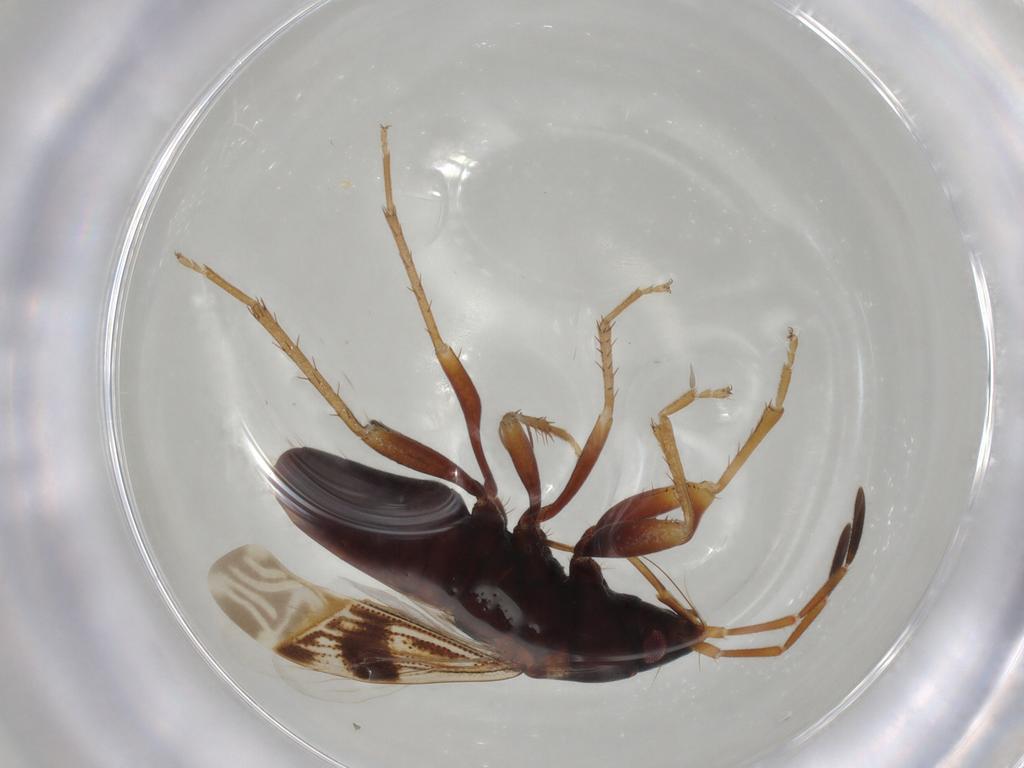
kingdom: Animalia
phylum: Arthropoda
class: Insecta
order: Hemiptera
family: Rhyparochromidae
